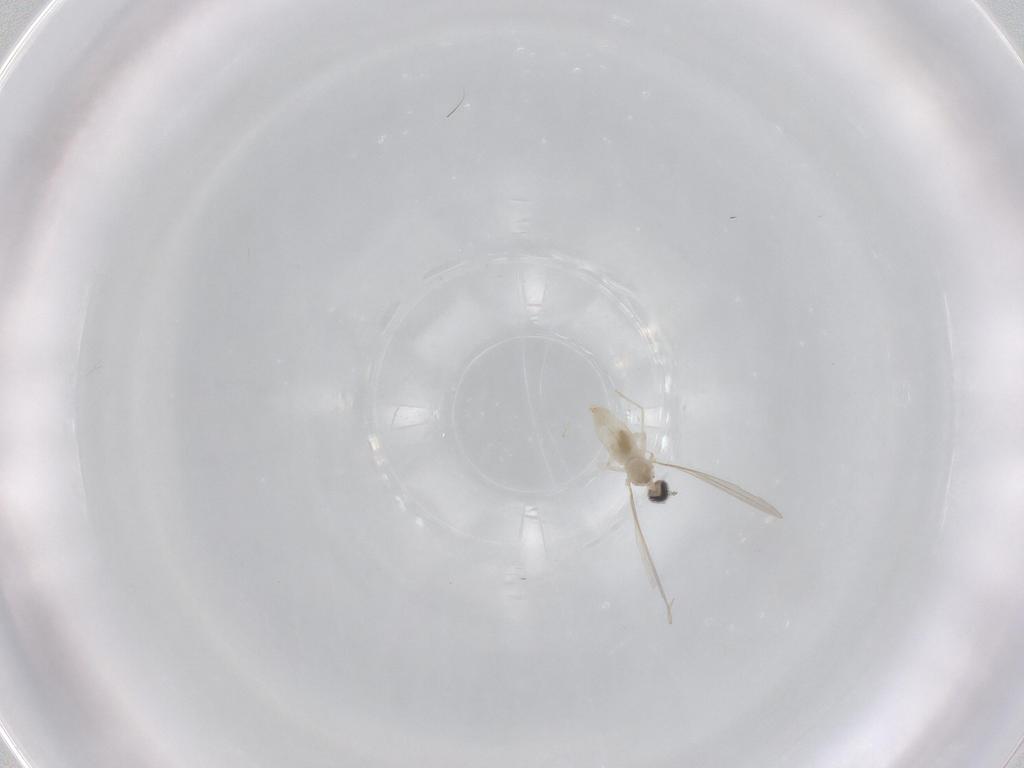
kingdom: Animalia
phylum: Arthropoda
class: Insecta
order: Diptera
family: Cecidomyiidae
